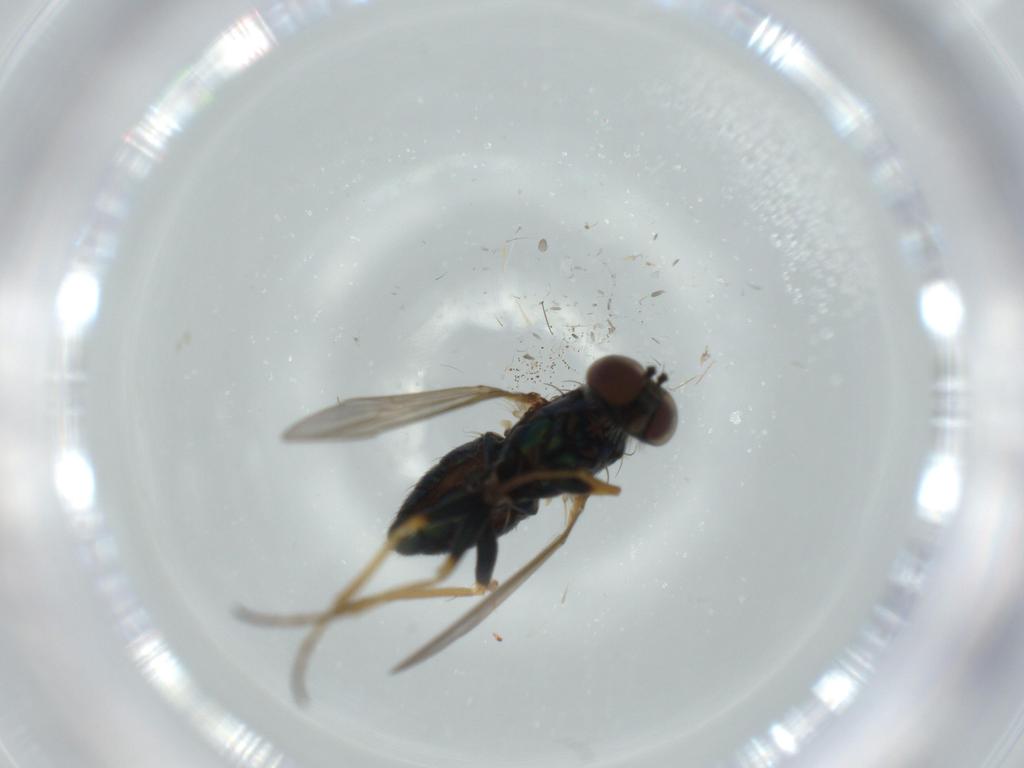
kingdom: Animalia
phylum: Arthropoda
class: Insecta
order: Diptera
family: Dolichopodidae
